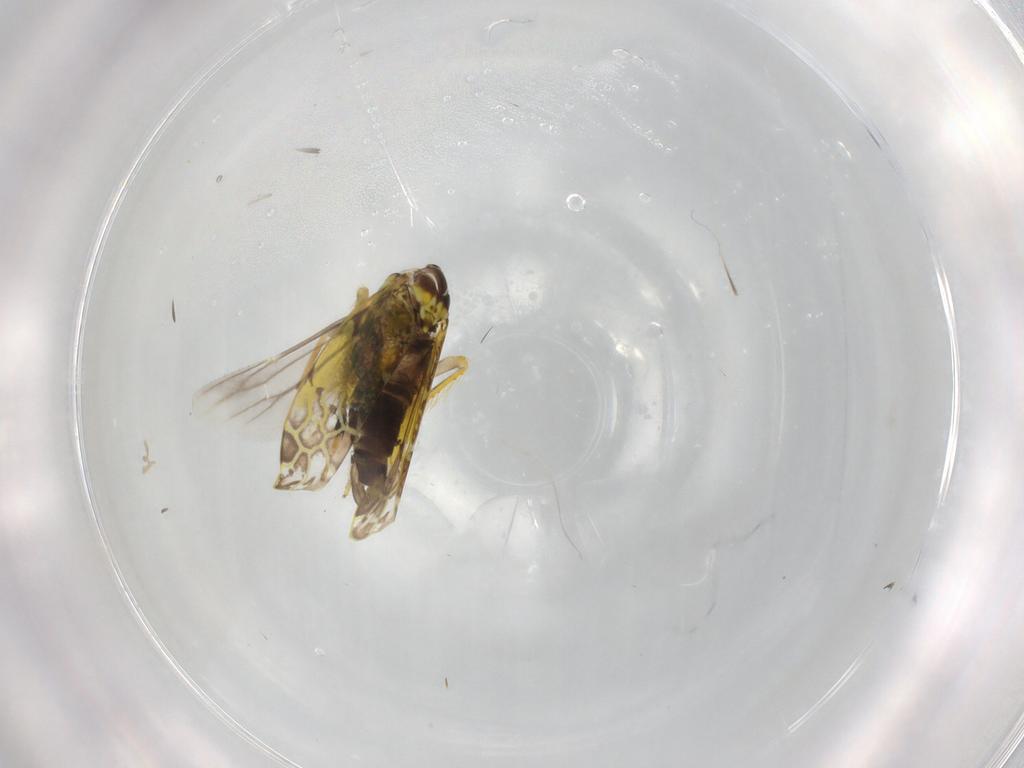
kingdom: Animalia
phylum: Arthropoda
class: Insecta
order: Hemiptera
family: Cicadellidae
